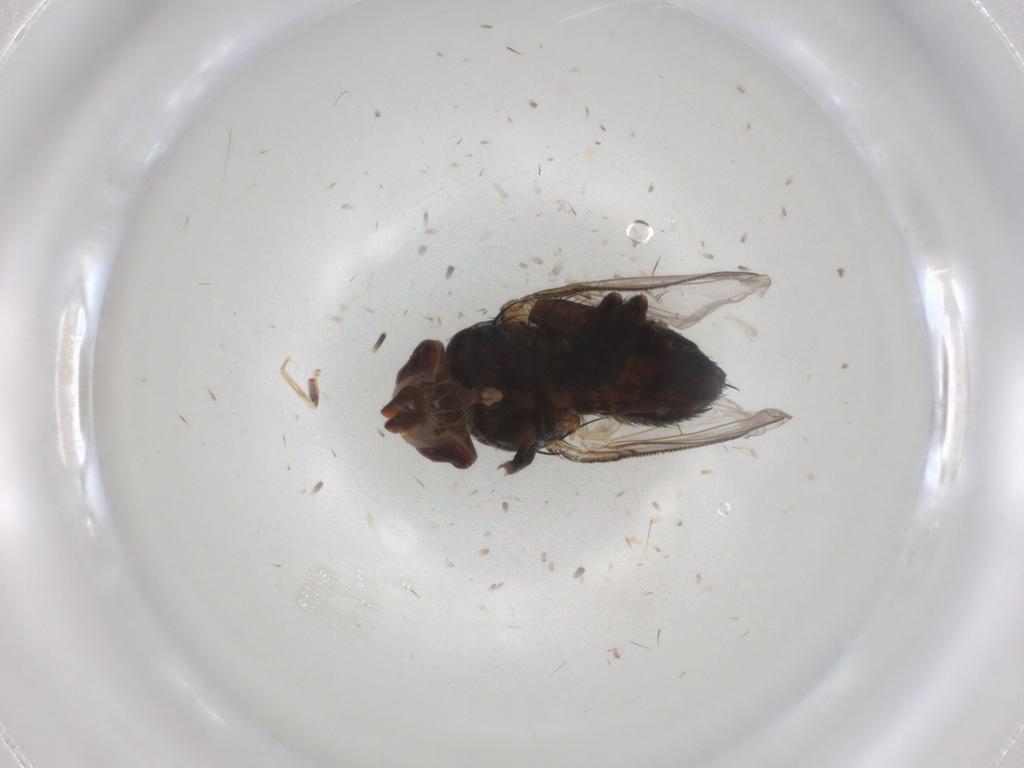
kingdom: Animalia
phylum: Arthropoda
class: Insecta
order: Diptera
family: Anthomyiidae
